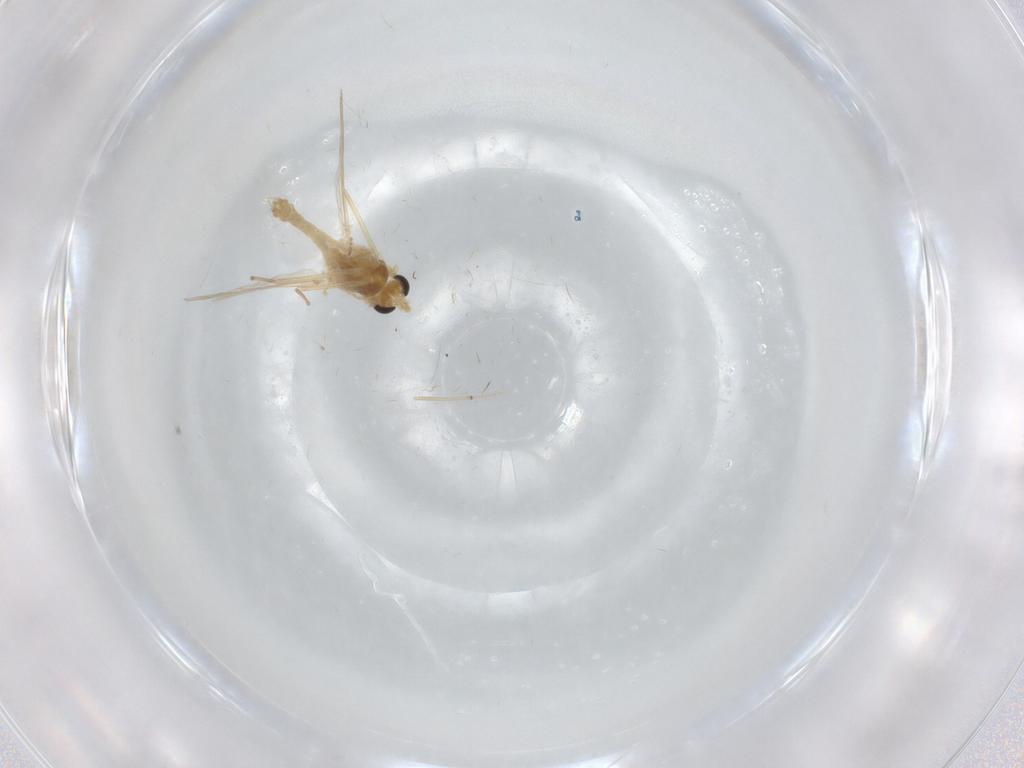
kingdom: Animalia
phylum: Arthropoda
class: Insecta
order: Diptera
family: Chironomidae
